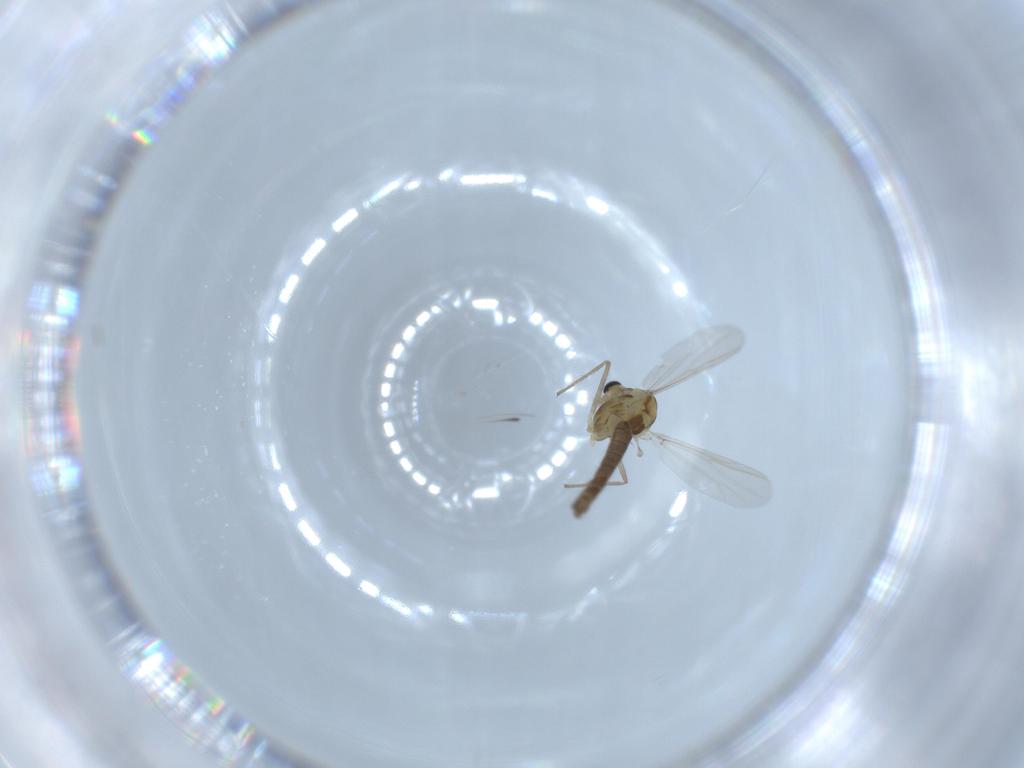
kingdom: Animalia
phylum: Arthropoda
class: Insecta
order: Diptera
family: Chironomidae
